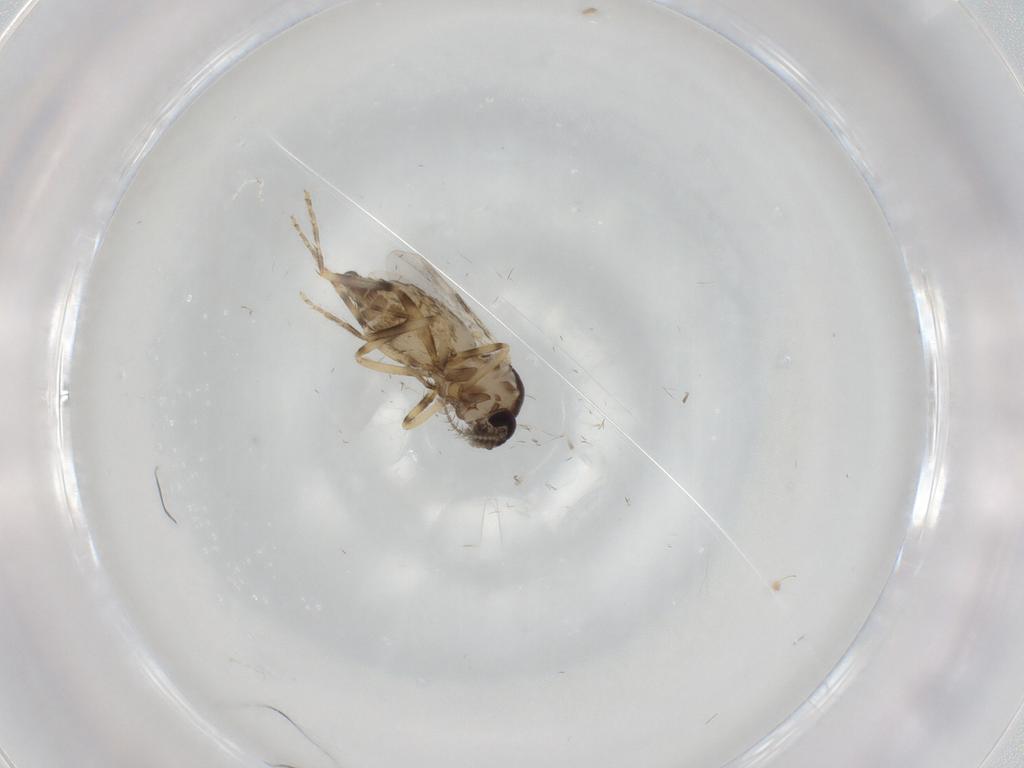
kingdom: Animalia
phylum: Arthropoda
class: Insecta
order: Diptera
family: Ceratopogonidae
